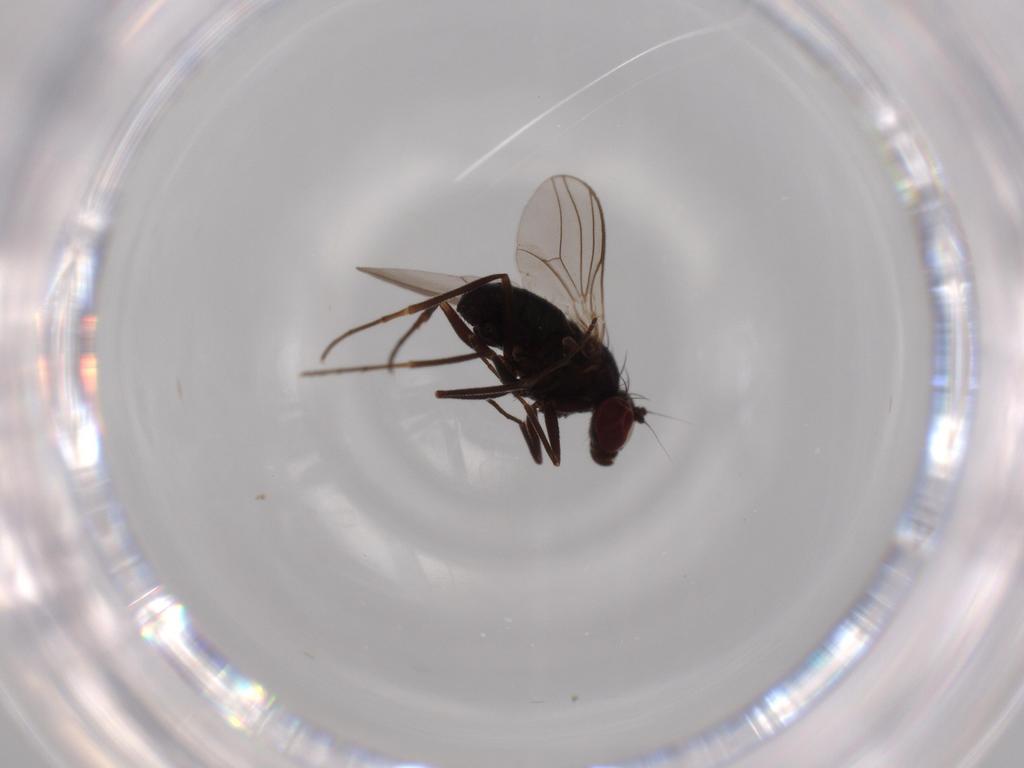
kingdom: Animalia
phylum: Arthropoda
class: Insecta
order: Diptera
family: Dolichopodidae
